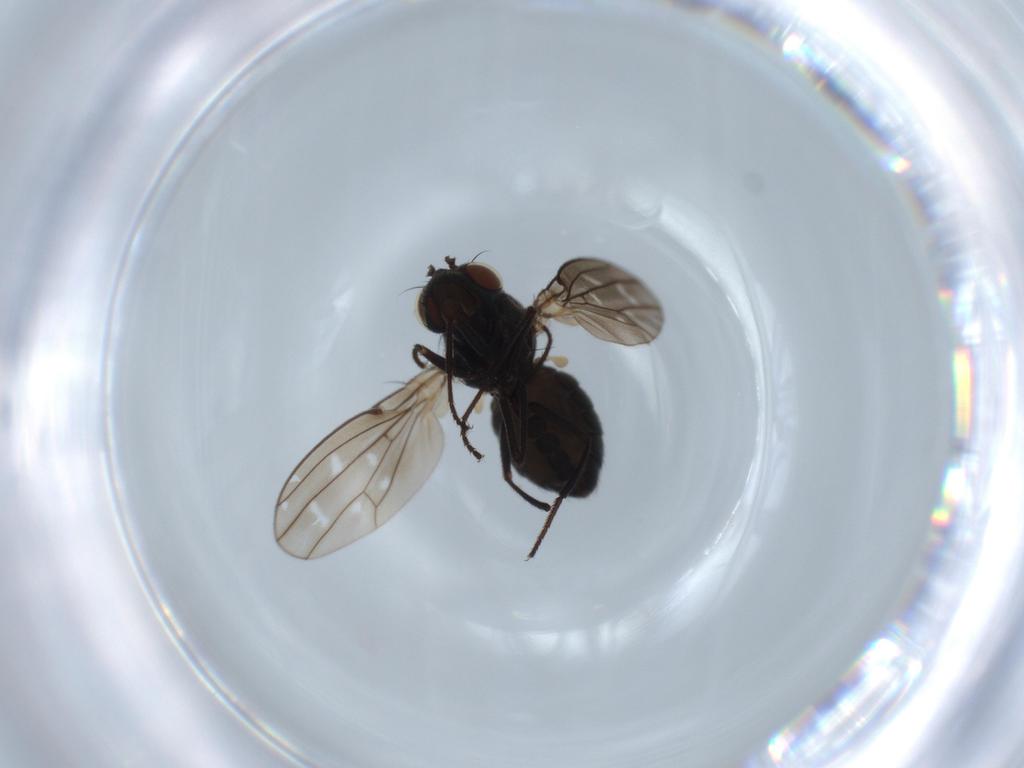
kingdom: Animalia
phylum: Arthropoda
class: Insecta
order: Diptera
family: Ephydridae
